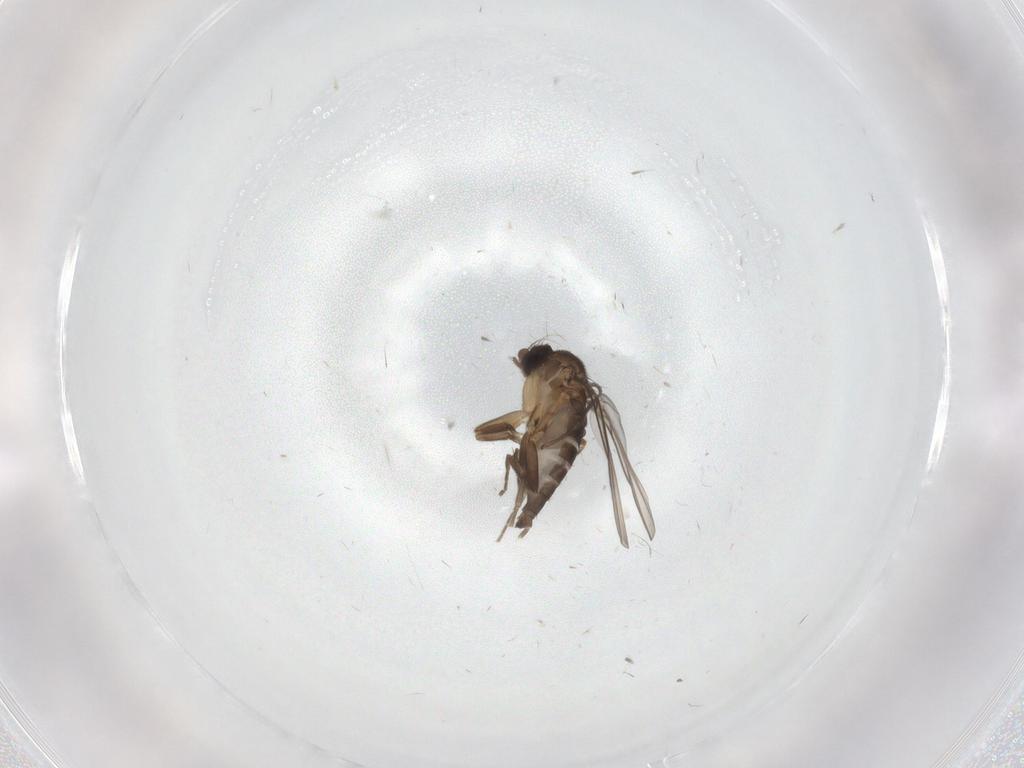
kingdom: Animalia
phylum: Arthropoda
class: Insecta
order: Diptera
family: Phoridae
